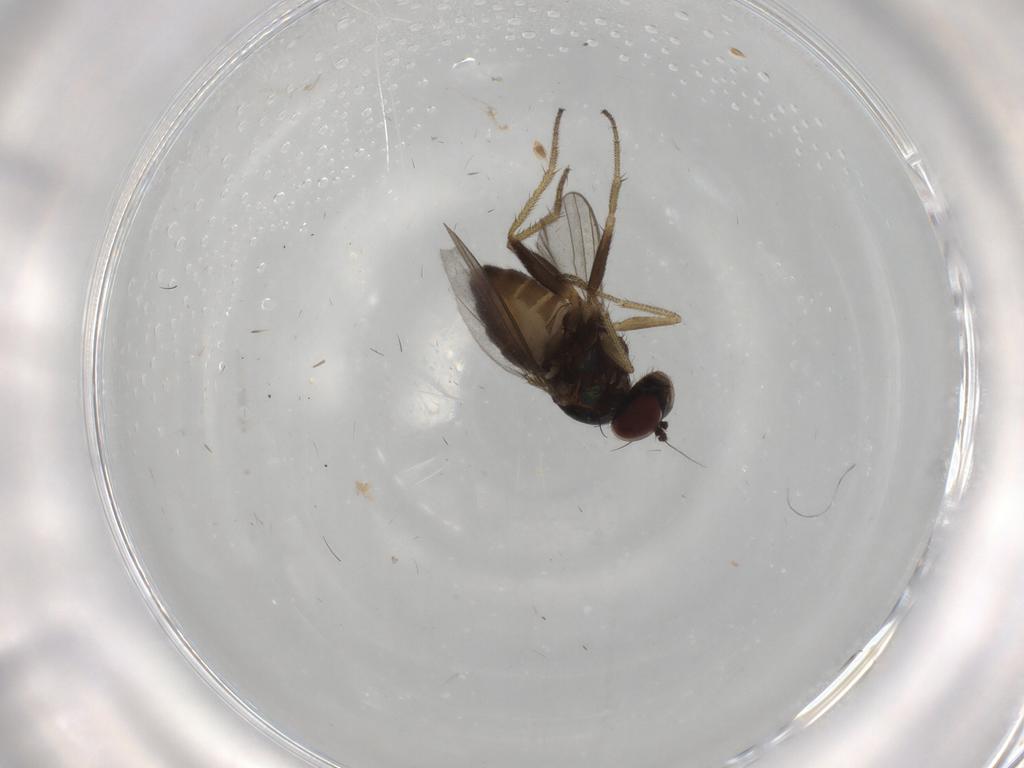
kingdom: Animalia
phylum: Arthropoda
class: Insecta
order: Diptera
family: Chironomidae
